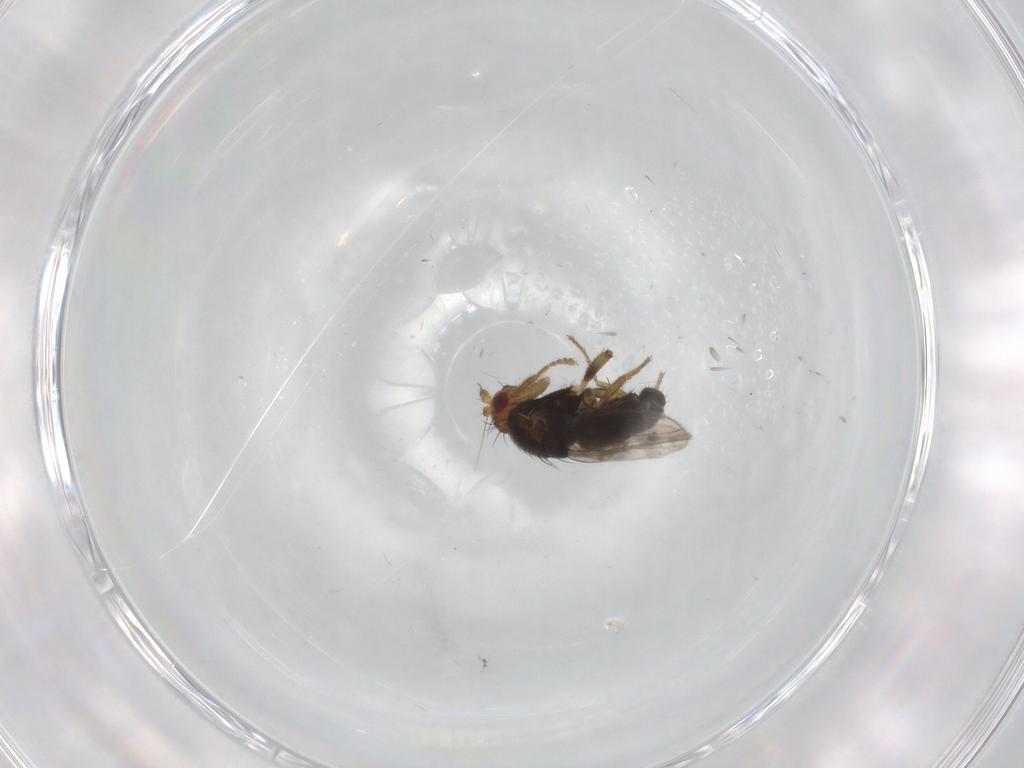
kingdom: Animalia
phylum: Arthropoda
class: Insecta
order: Diptera
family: Sphaeroceridae
